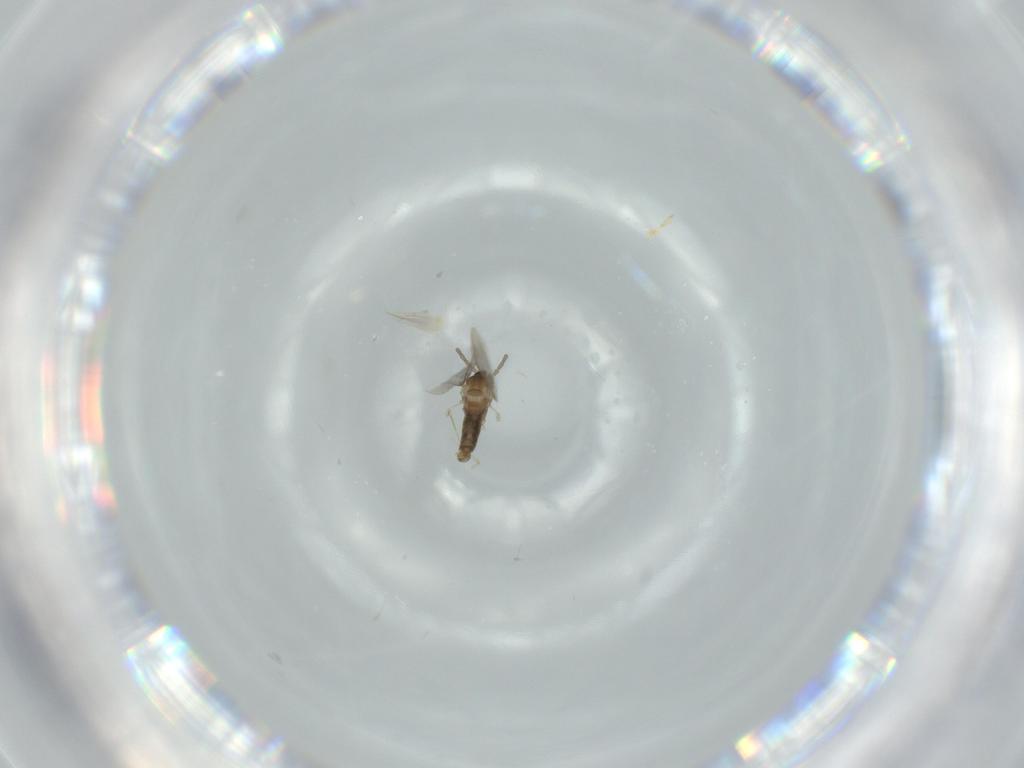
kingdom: Animalia
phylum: Arthropoda
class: Insecta
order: Diptera
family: Cecidomyiidae
